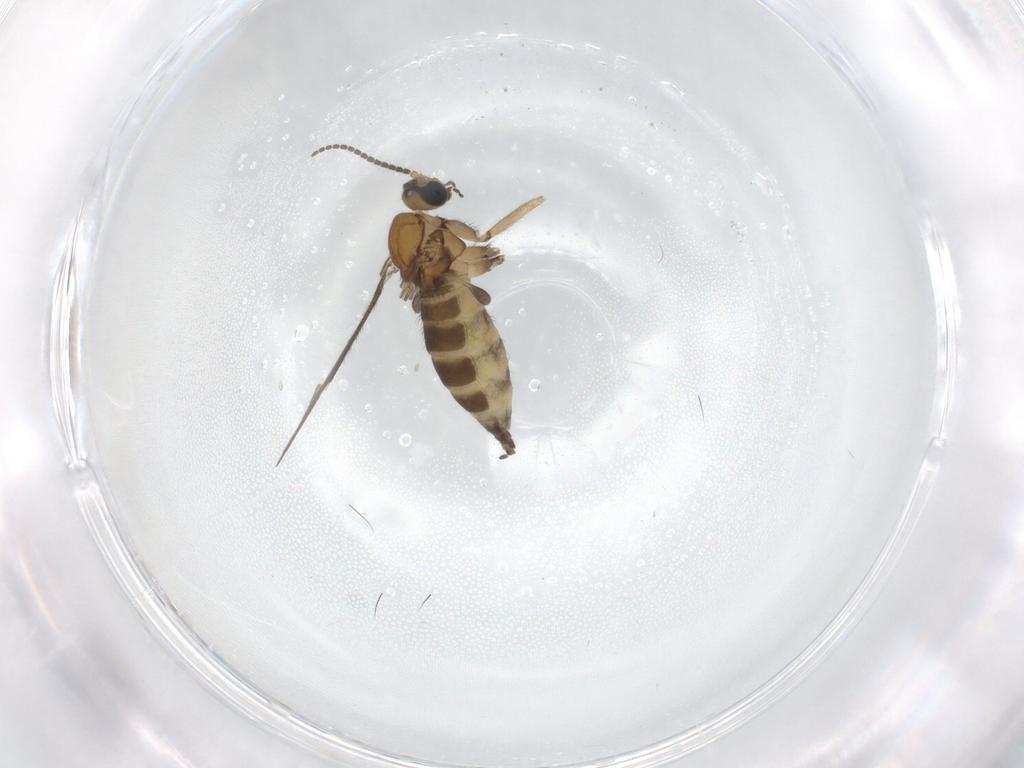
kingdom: Animalia
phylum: Arthropoda
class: Insecta
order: Diptera
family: Sciaridae
